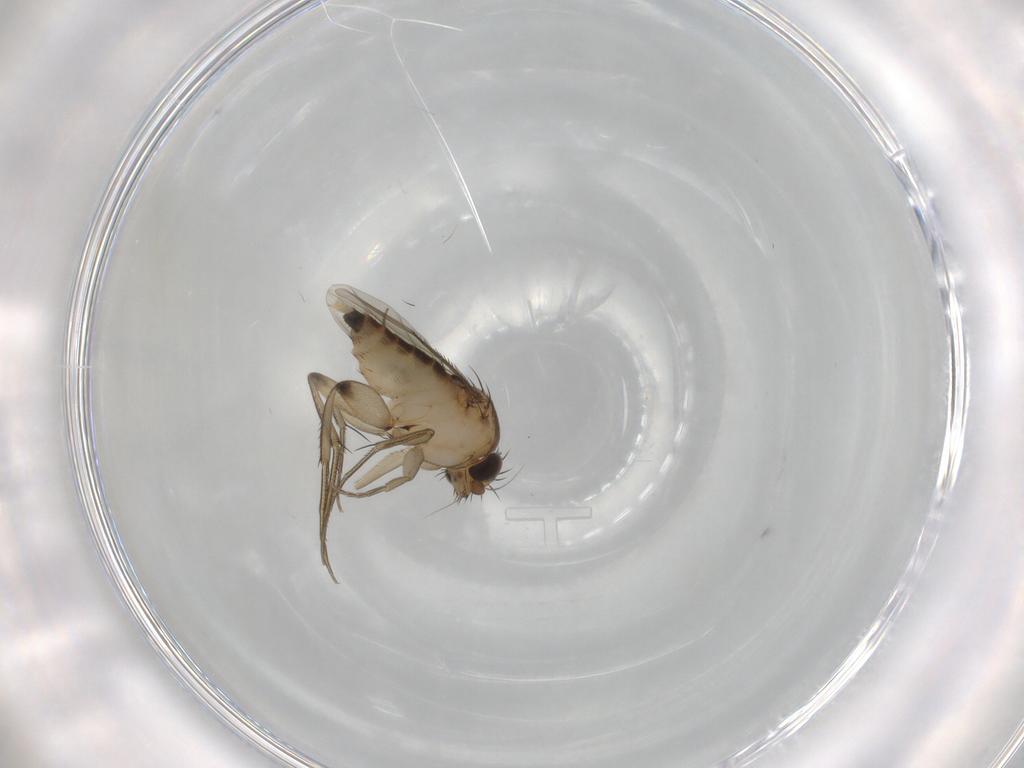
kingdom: Animalia
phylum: Arthropoda
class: Insecta
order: Diptera
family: Phoridae
